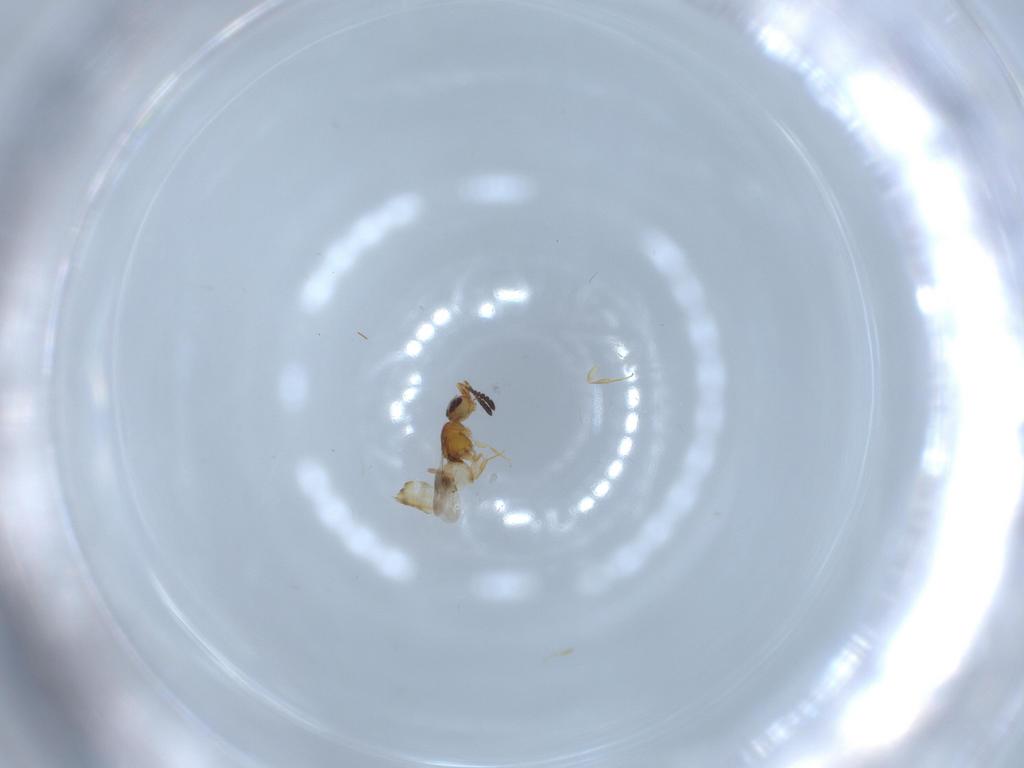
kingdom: Animalia
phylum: Arthropoda
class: Insecta
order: Hymenoptera
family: Ceraphronidae
